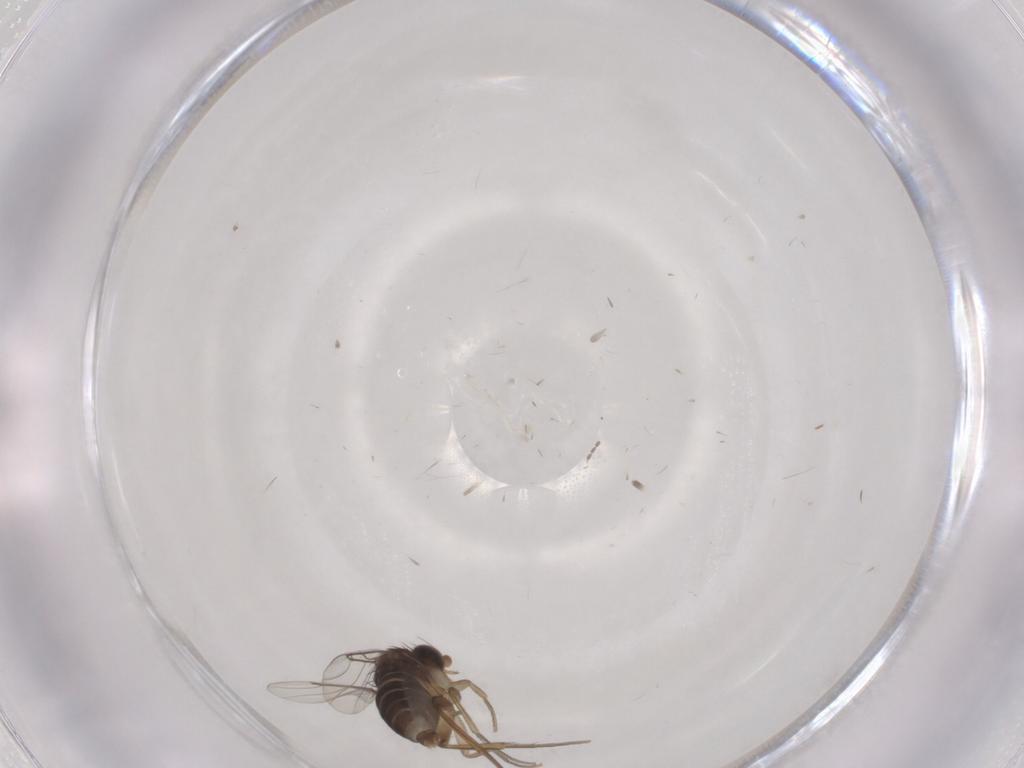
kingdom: Animalia
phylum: Arthropoda
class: Insecta
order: Diptera
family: Phoridae
